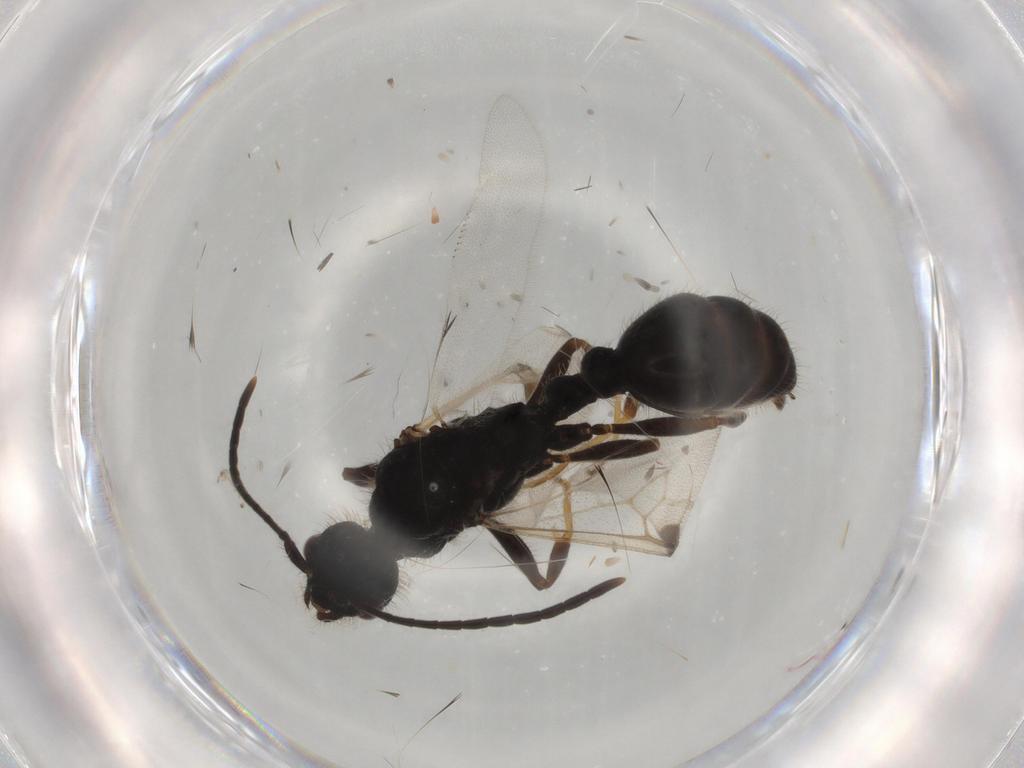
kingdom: Animalia
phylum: Arthropoda
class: Insecta
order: Hymenoptera
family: Formicidae
